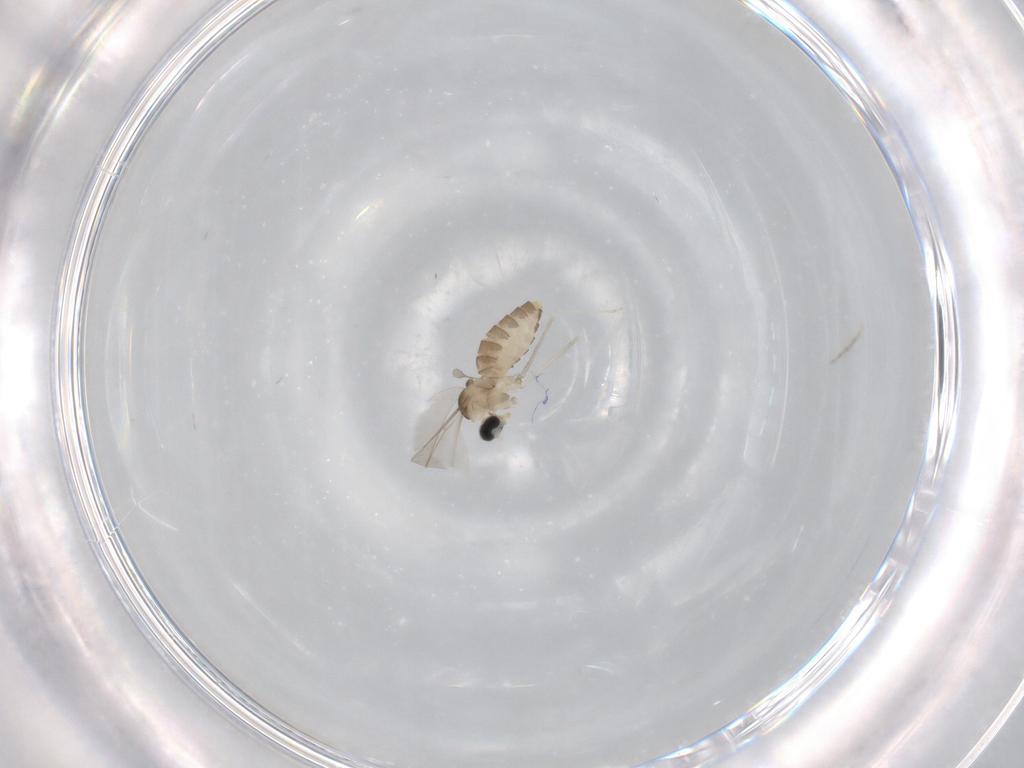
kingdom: Animalia
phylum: Arthropoda
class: Insecta
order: Diptera
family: Cecidomyiidae
